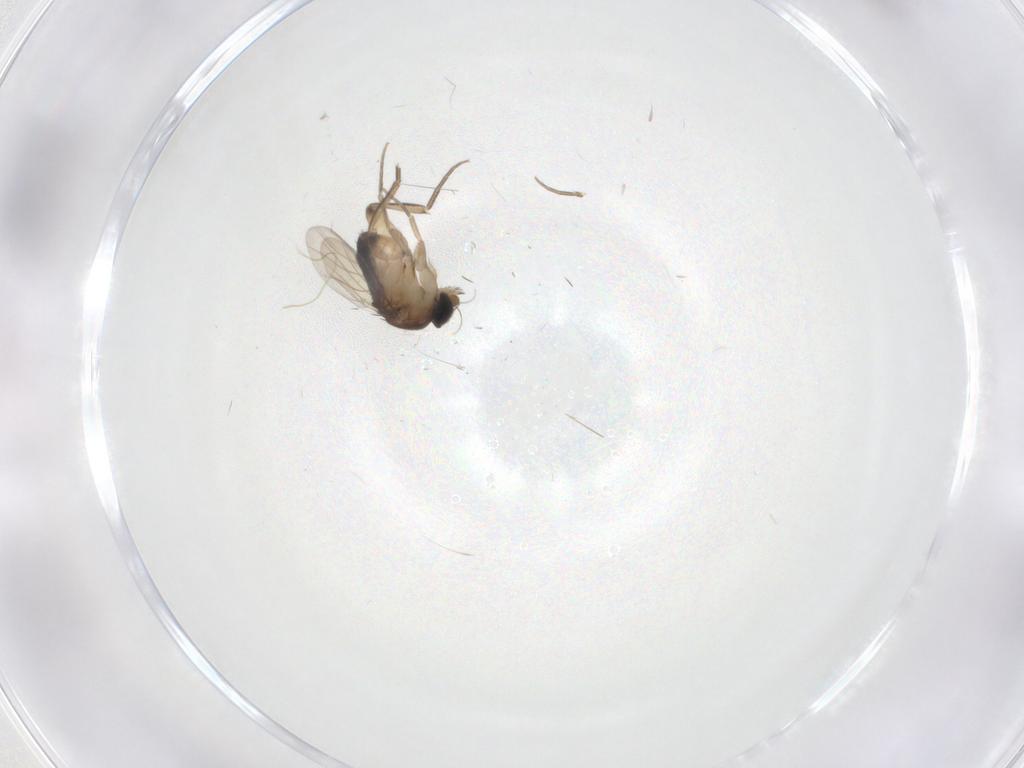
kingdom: Animalia
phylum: Arthropoda
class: Insecta
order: Diptera
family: Phoridae
